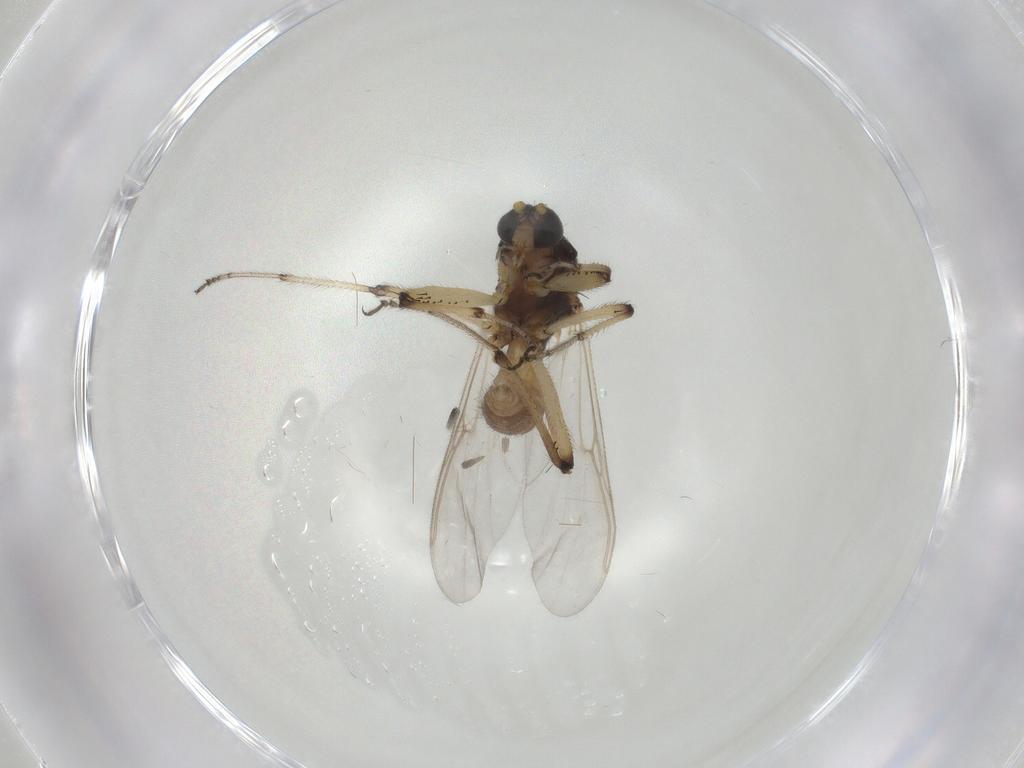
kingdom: Animalia
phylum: Arthropoda
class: Insecta
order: Diptera
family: Ceratopogonidae
